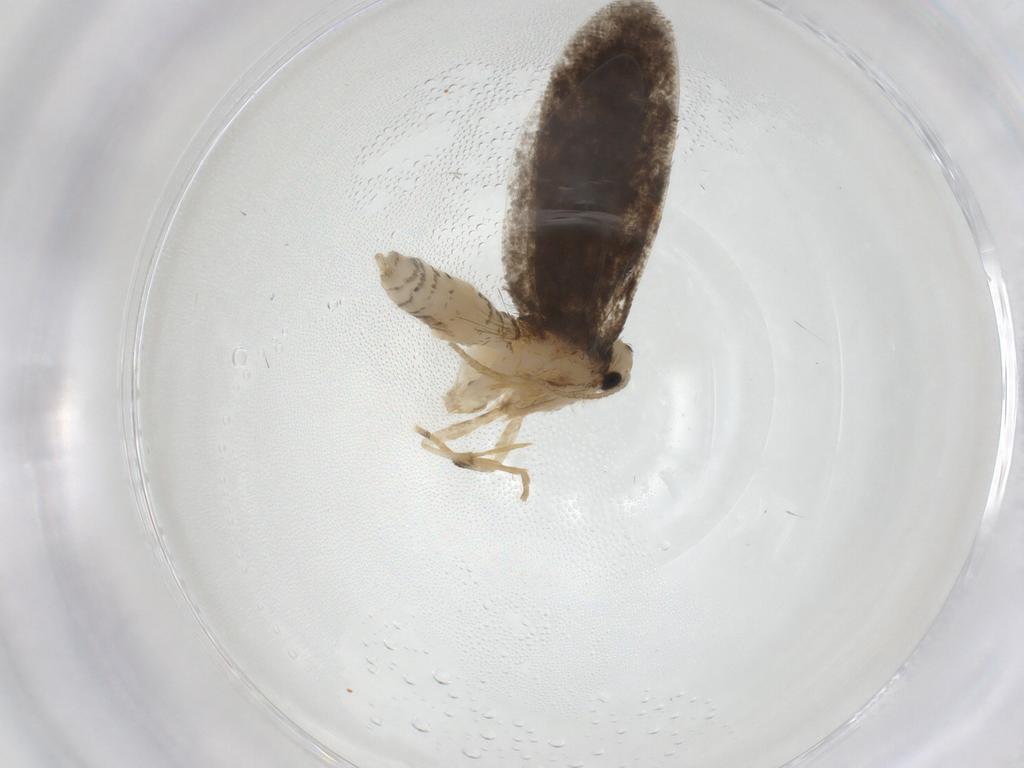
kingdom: Animalia
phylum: Arthropoda
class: Insecta
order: Lepidoptera
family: Psychidae
